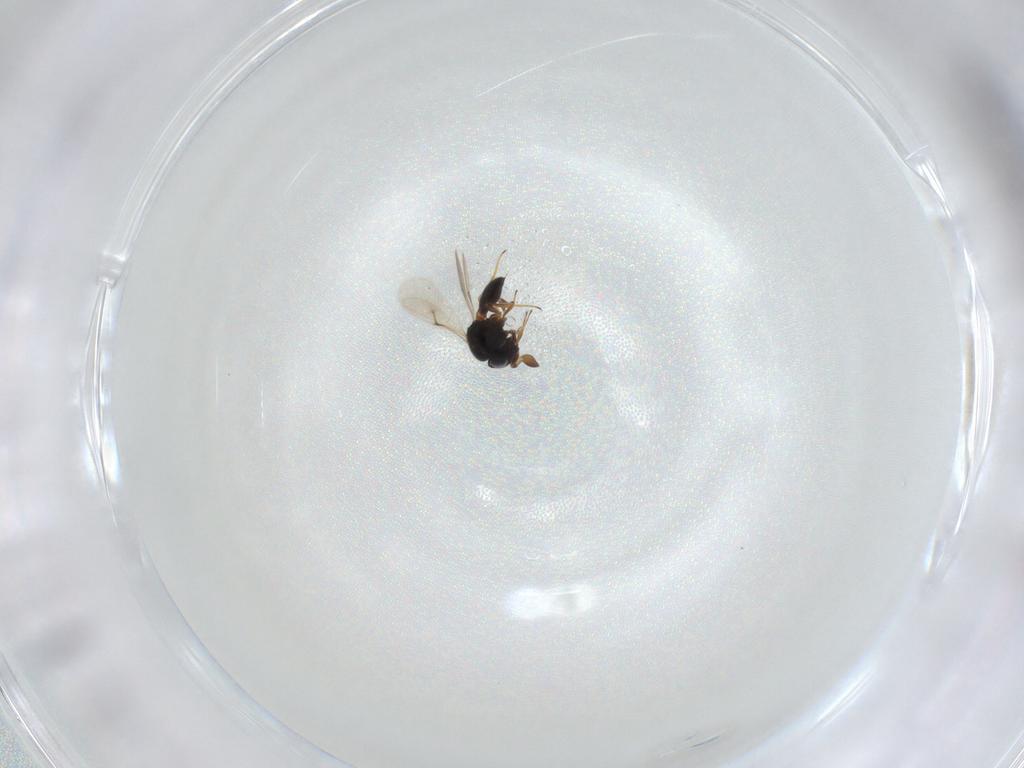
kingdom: Animalia
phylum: Arthropoda
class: Insecta
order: Hymenoptera
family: Scelionidae
